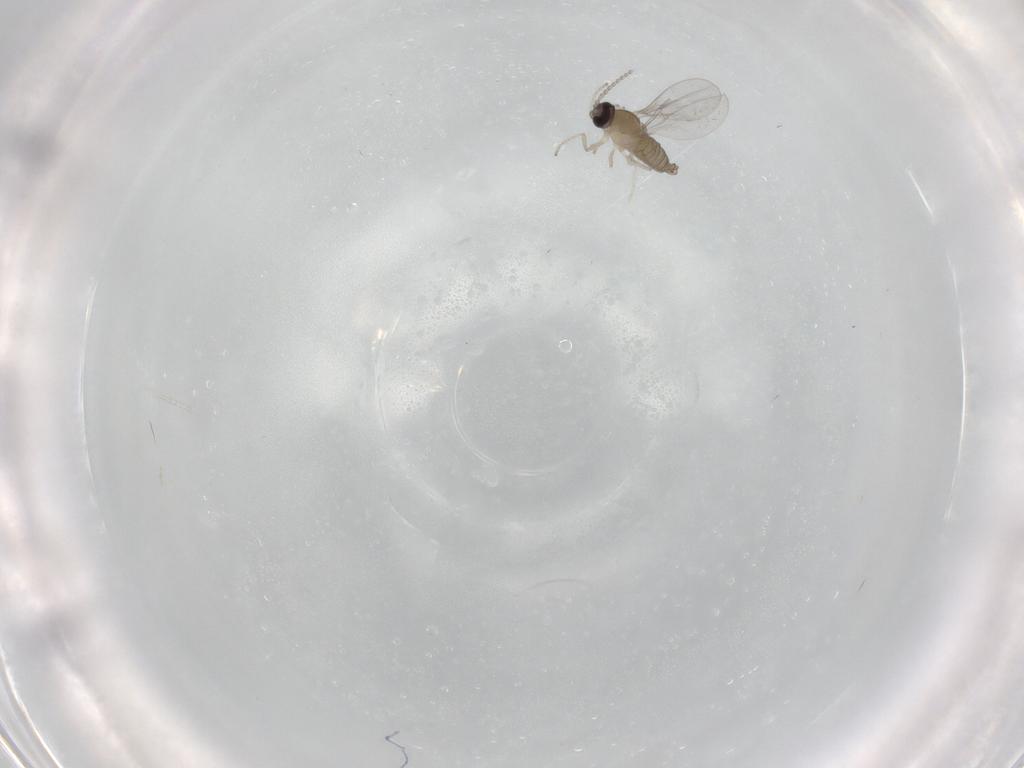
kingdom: Animalia
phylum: Arthropoda
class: Insecta
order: Diptera
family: Cecidomyiidae
